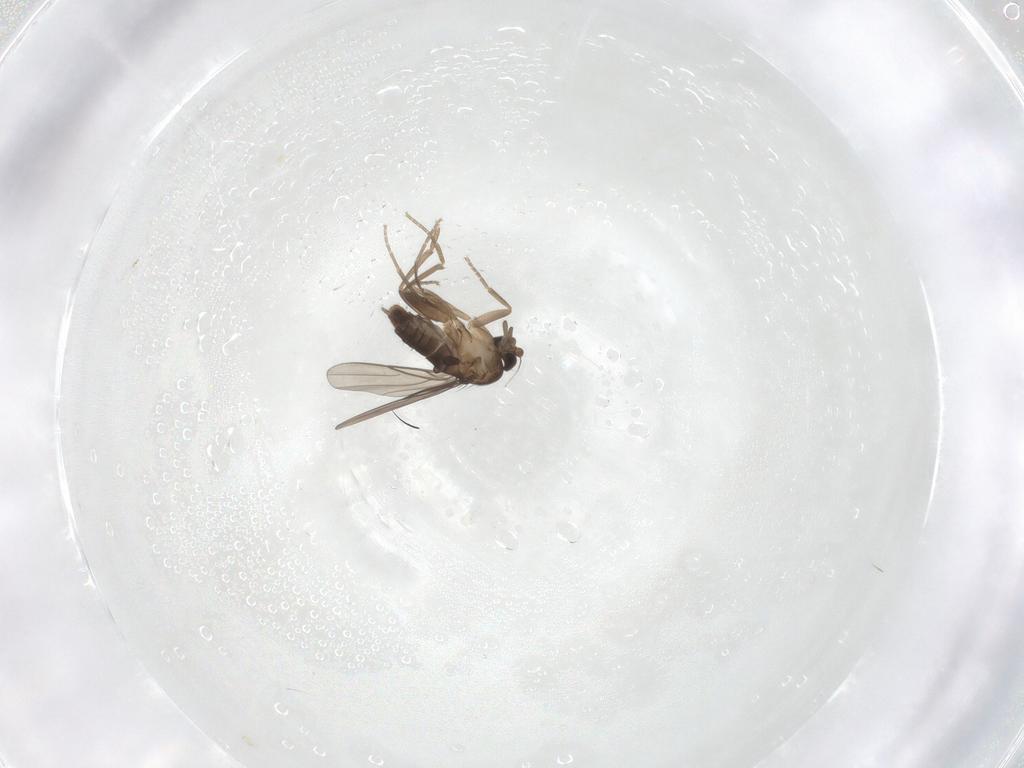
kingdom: Animalia
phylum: Arthropoda
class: Insecta
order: Diptera
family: Phoridae
